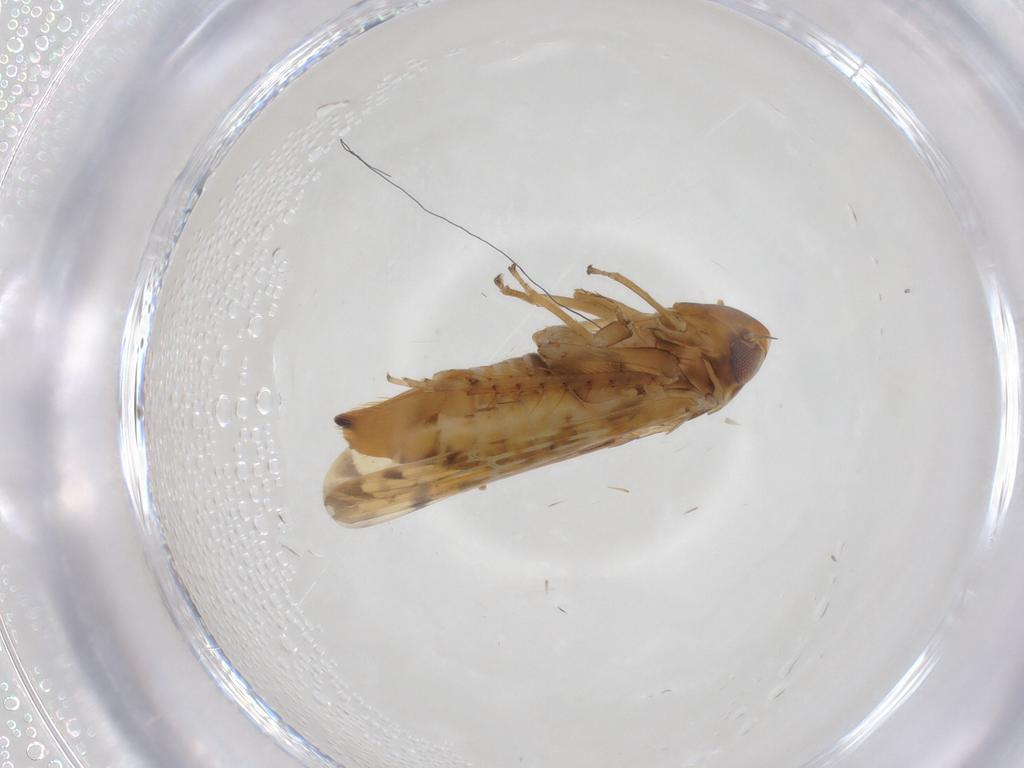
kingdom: Animalia
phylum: Arthropoda
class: Insecta
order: Hemiptera
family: Cicadellidae
